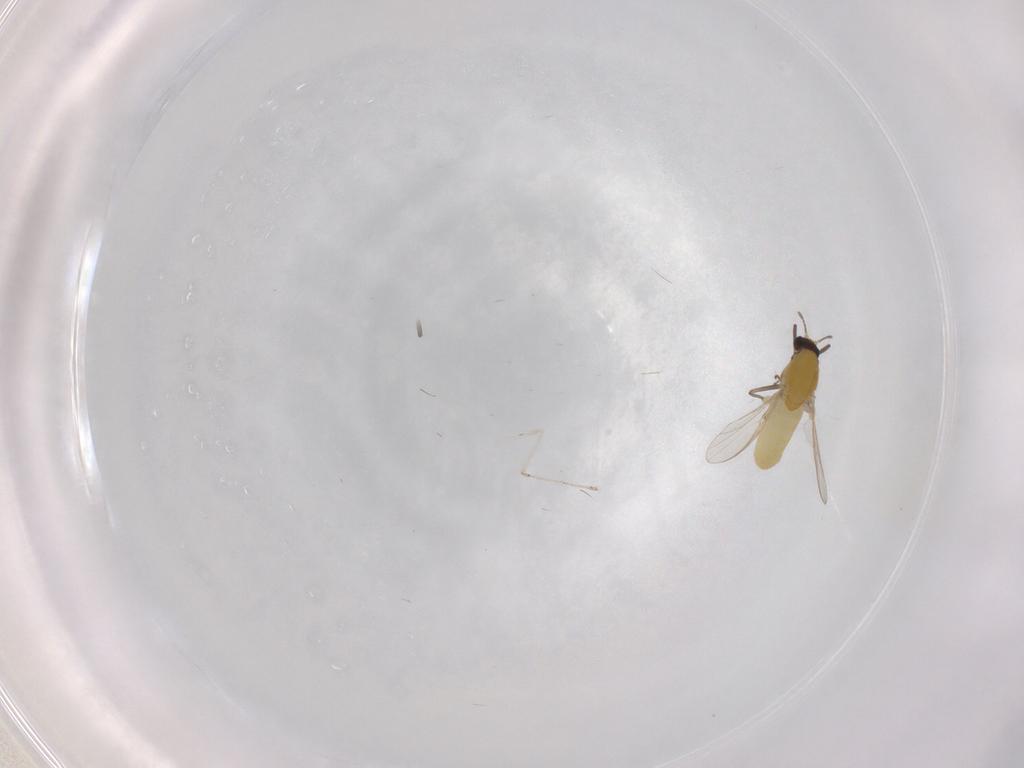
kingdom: Animalia
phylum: Arthropoda
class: Insecta
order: Diptera
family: Chironomidae
